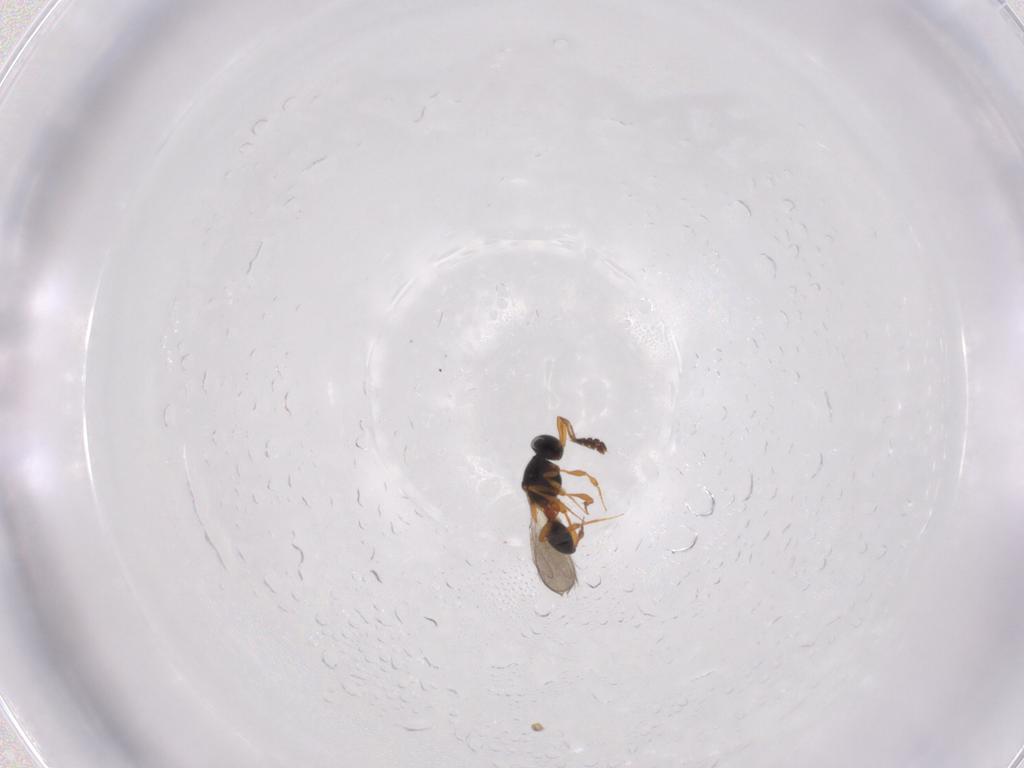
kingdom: Animalia
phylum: Arthropoda
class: Insecta
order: Hymenoptera
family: Platygastridae
